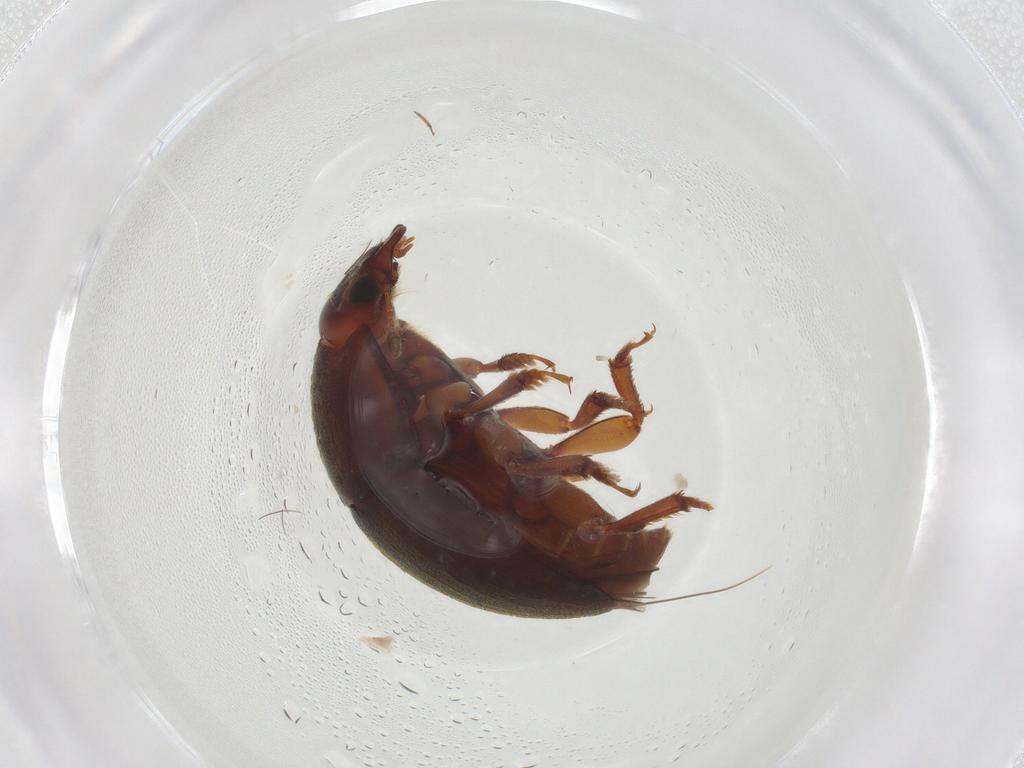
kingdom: Animalia
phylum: Arthropoda
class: Insecta
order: Coleoptera
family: Nitidulidae
